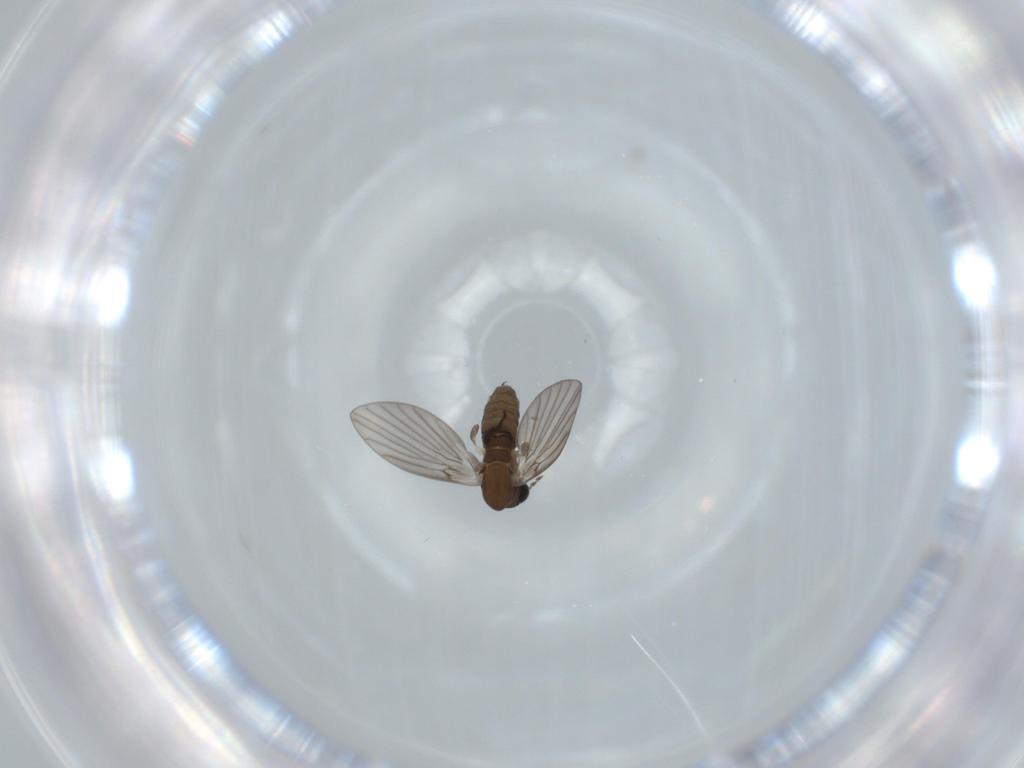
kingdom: Animalia
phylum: Arthropoda
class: Insecta
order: Diptera
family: Psychodidae
